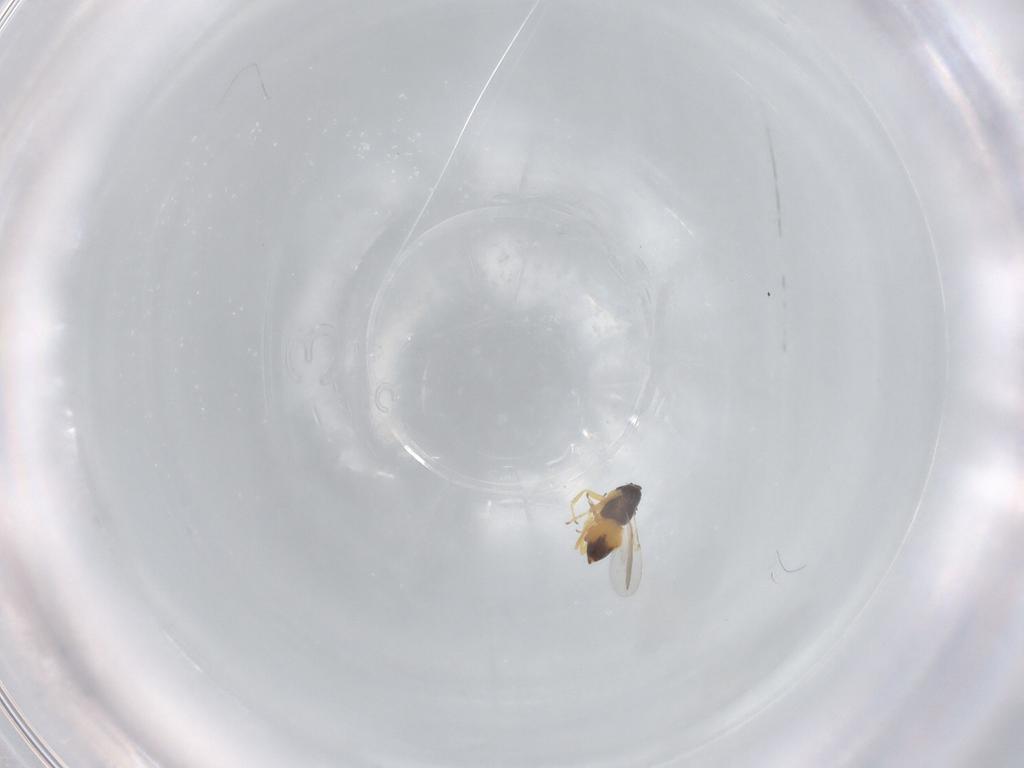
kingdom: Animalia
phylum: Arthropoda
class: Insecta
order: Hymenoptera
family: Encyrtidae
